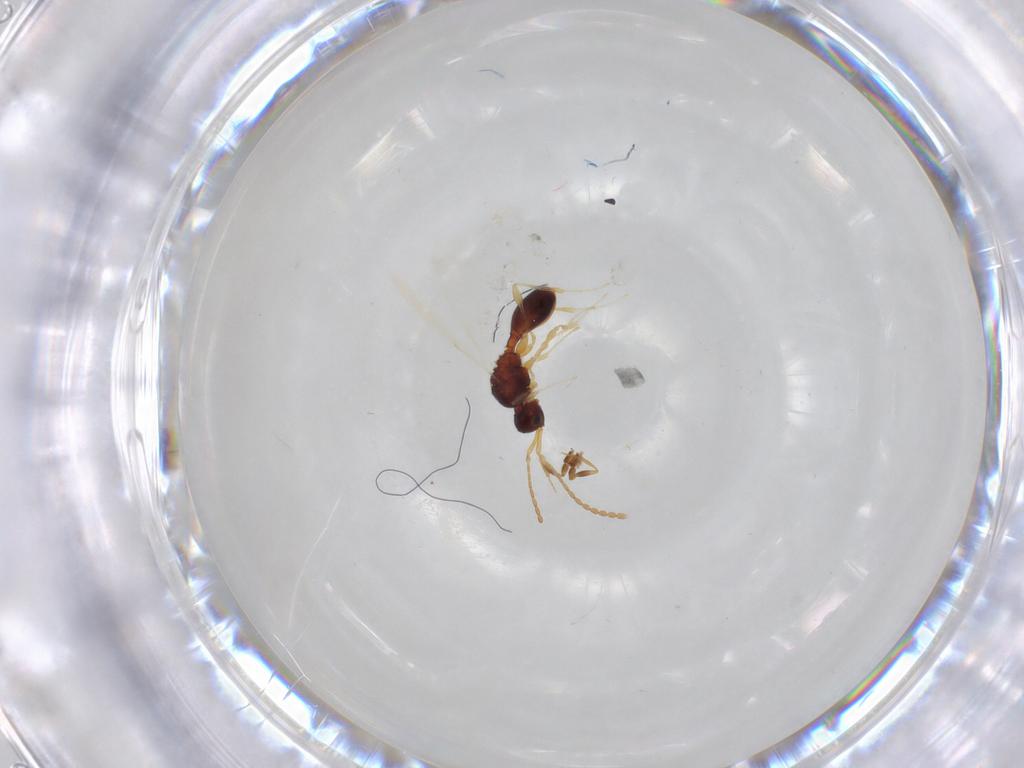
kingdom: Animalia
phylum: Arthropoda
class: Insecta
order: Hymenoptera
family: Diapriidae
